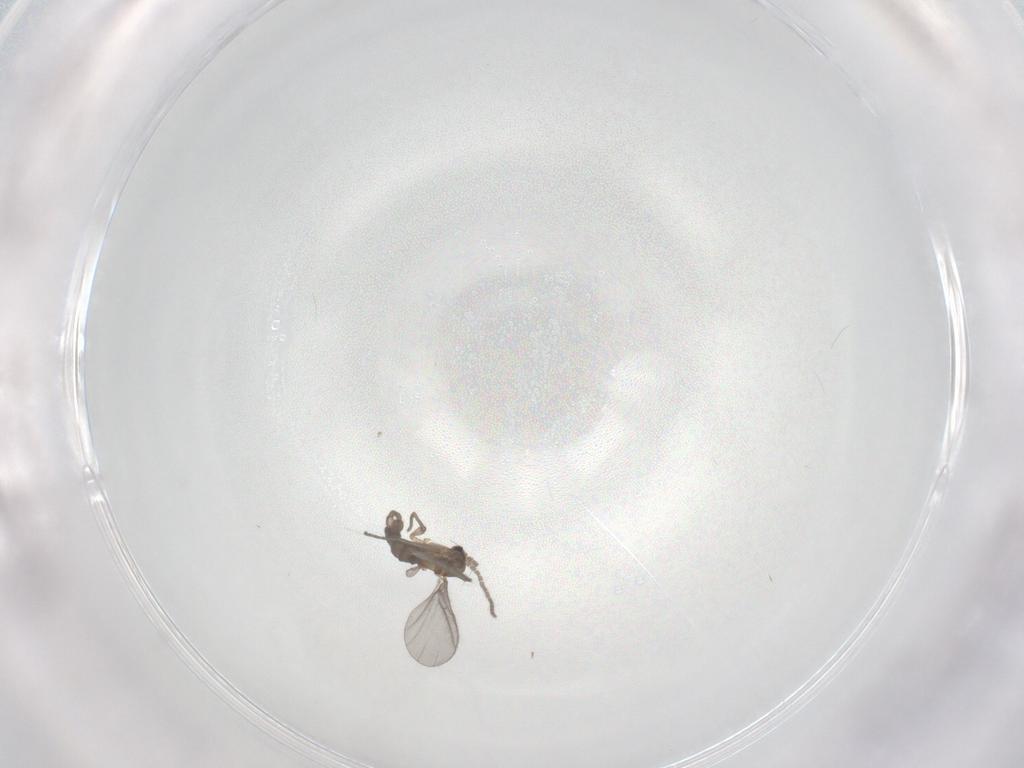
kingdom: Animalia
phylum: Arthropoda
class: Insecta
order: Diptera
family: Sciaridae
